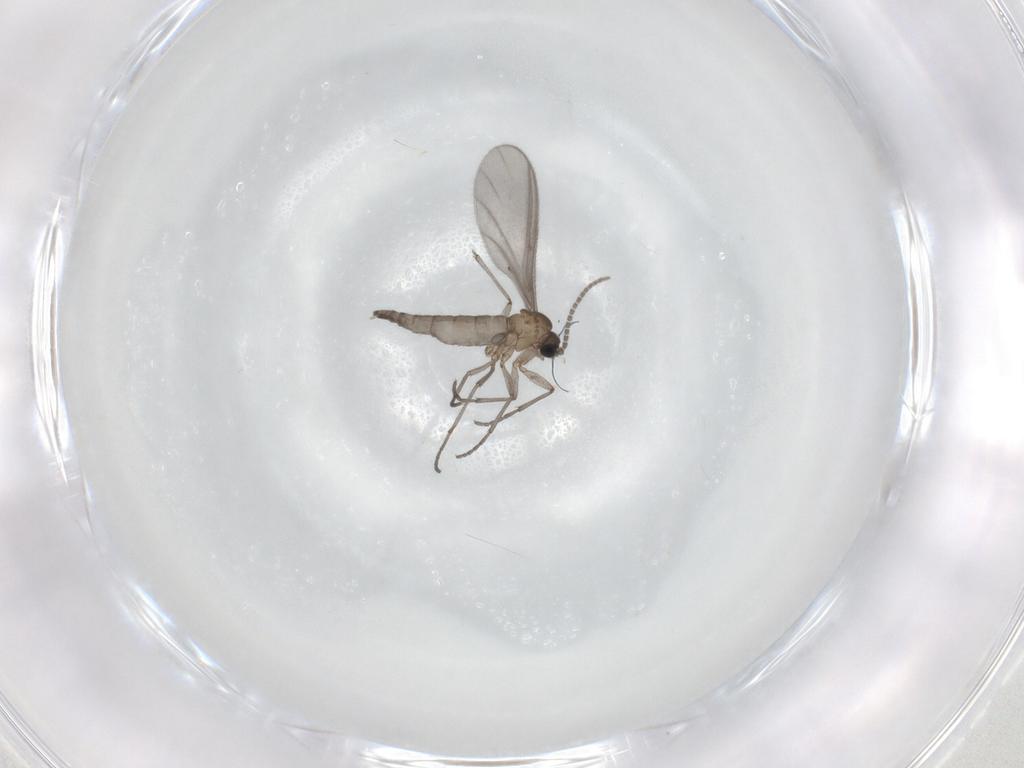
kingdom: Animalia
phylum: Arthropoda
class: Insecta
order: Diptera
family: Sciaridae
